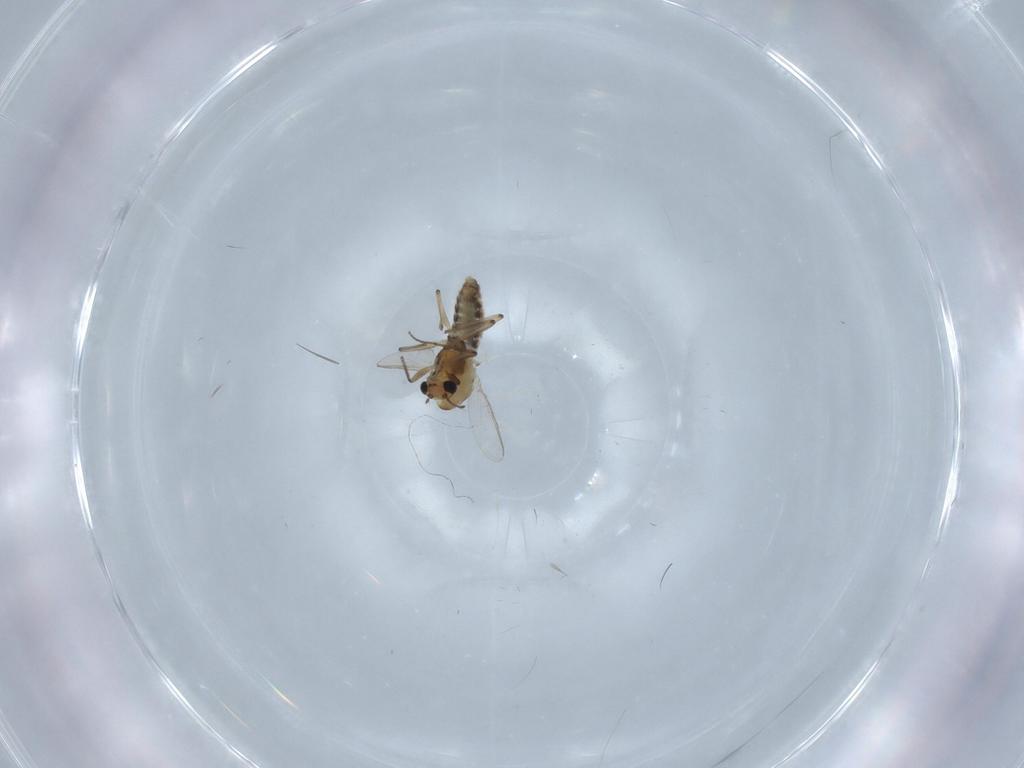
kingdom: Animalia
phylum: Arthropoda
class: Insecta
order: Diptera
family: Chironomidae
